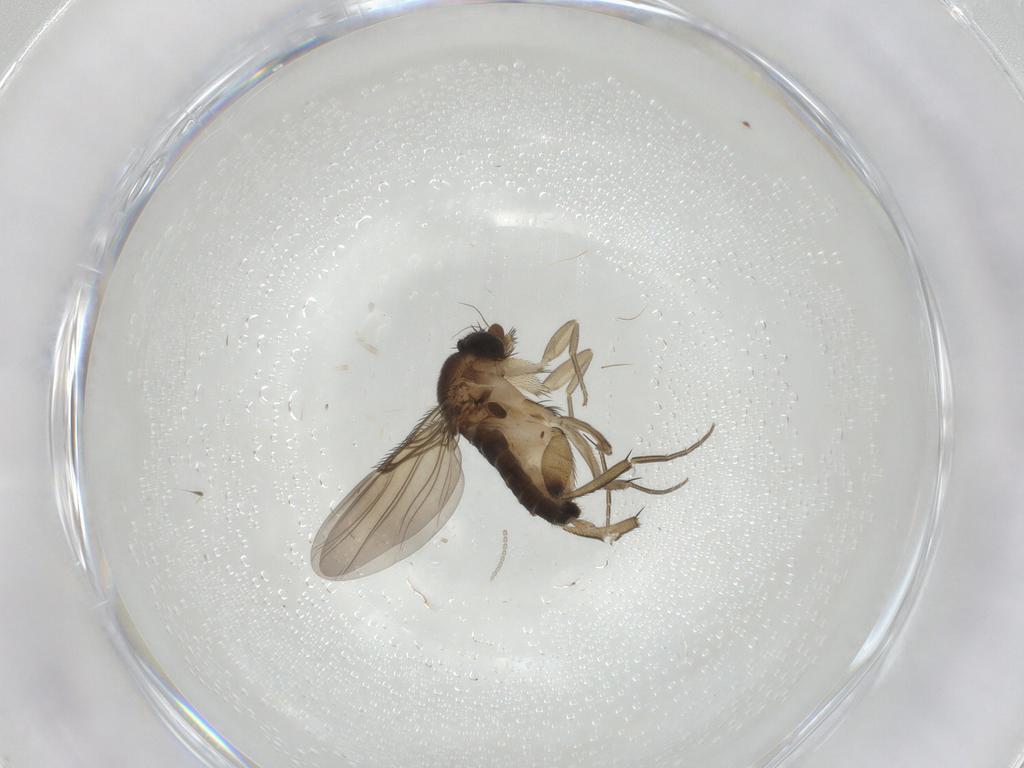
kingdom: Animalia
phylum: Arthropoda
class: Insecta
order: Diptera
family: Phoridae
